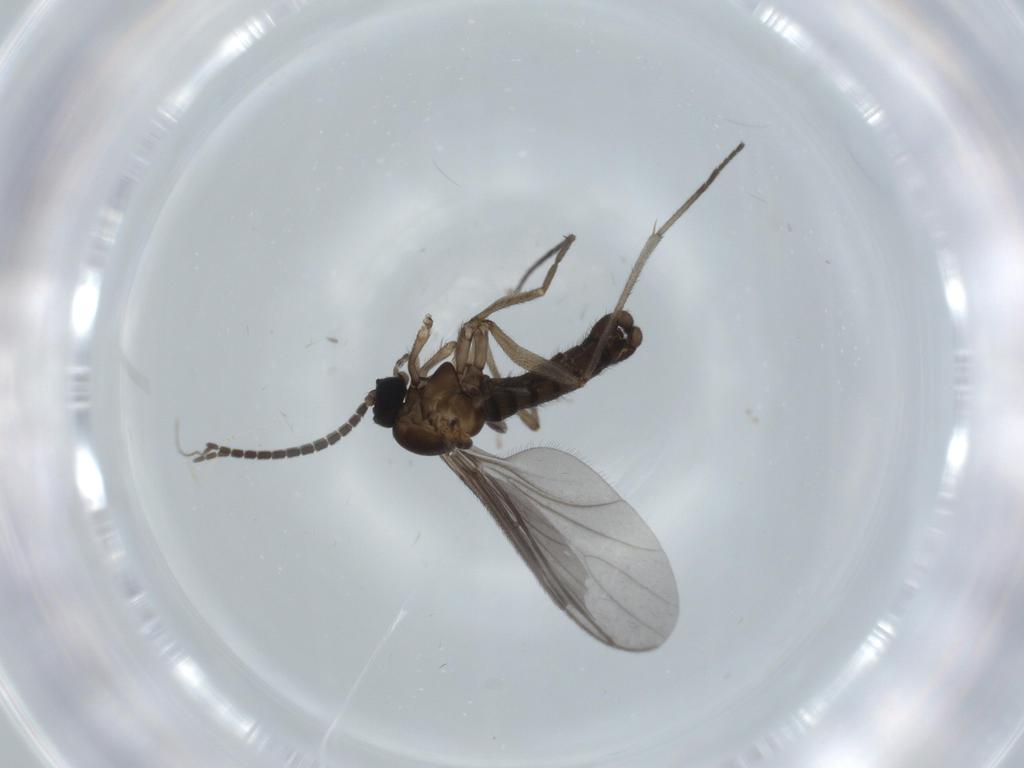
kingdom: Animalia
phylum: Arthropoda
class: Insecta
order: Diptera
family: Sciaridae
